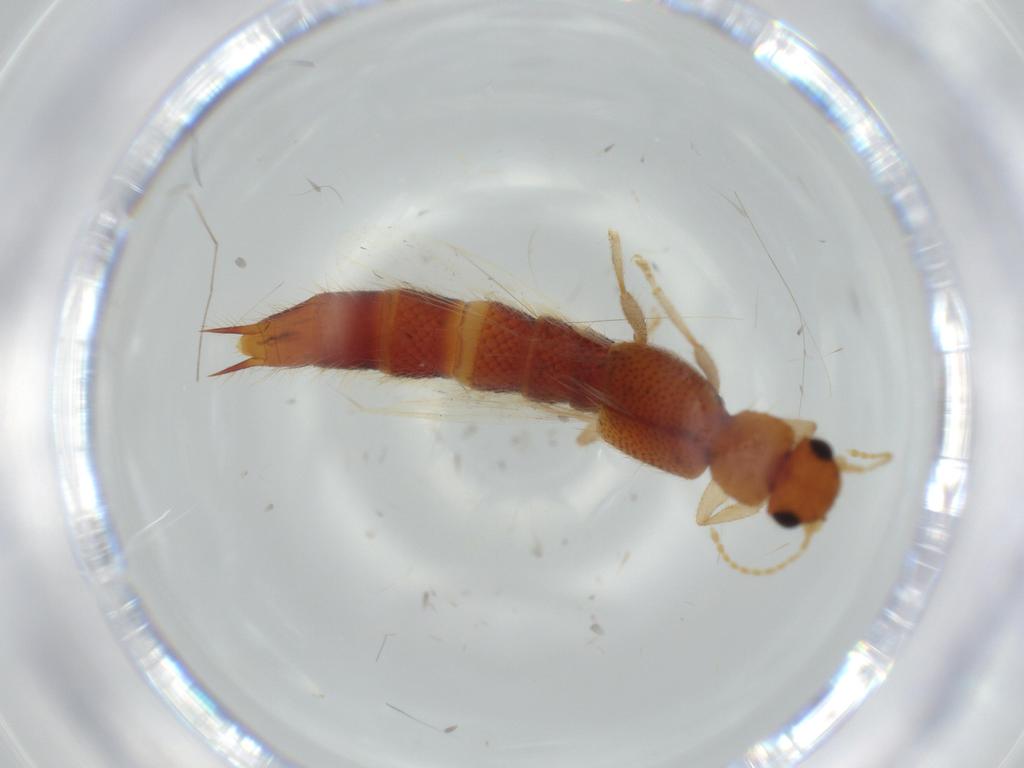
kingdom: Animalia
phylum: Arthropoda
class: Insecta
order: Coleoptera
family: Staphylinidae
